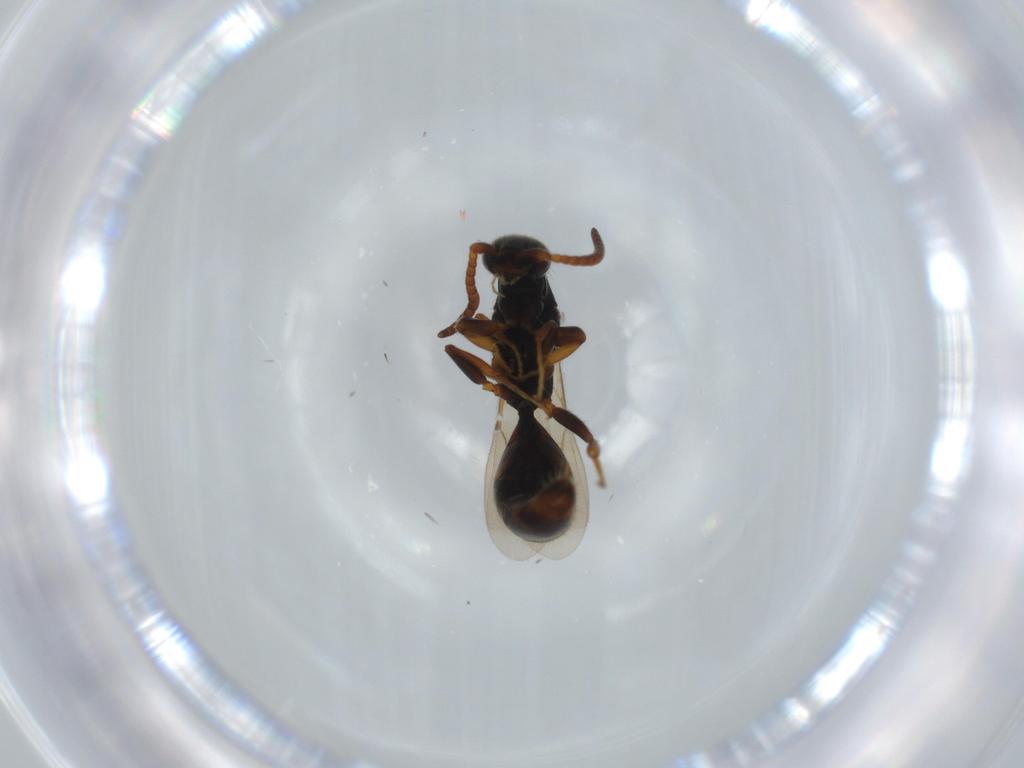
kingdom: Animalia
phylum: Arthropoda
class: Insecta
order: Hymenoptera
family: Bethylidae
